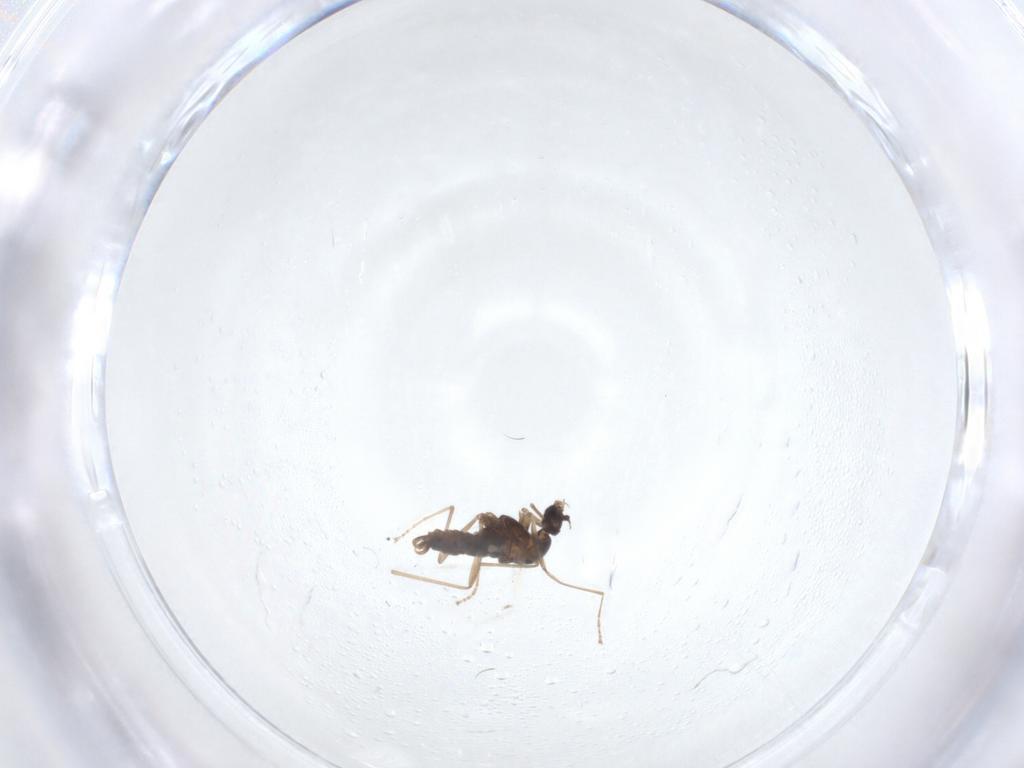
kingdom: Animalia
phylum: Arthropoda
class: Insecta
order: Diptera
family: Cecidomyiidae
